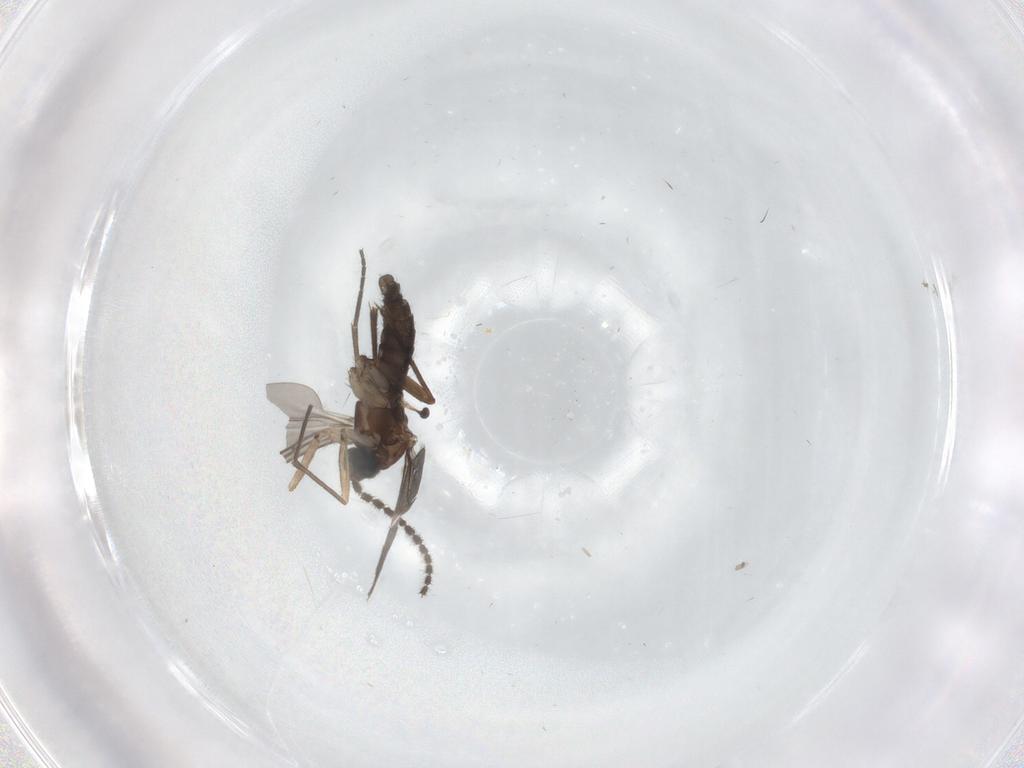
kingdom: Animalia
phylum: Arthropoda
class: Insecta
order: Diptera
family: Sciaridae
